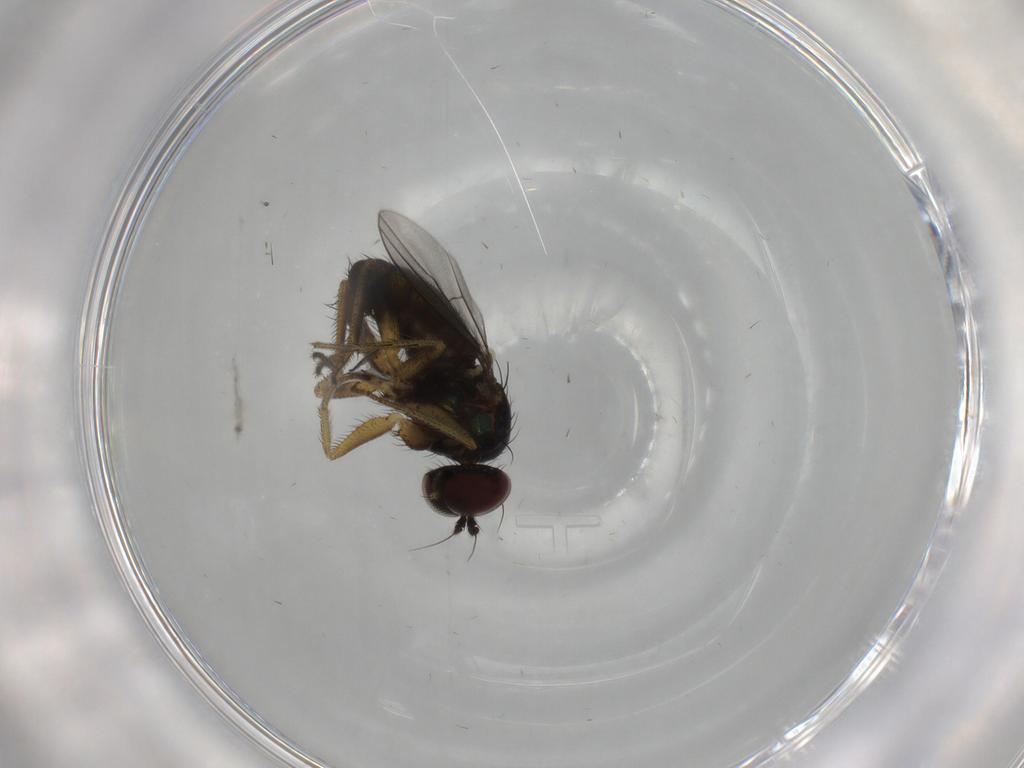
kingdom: Animalia
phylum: Arthropoda
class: Insecta
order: Diptera
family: Dolichopodidae
